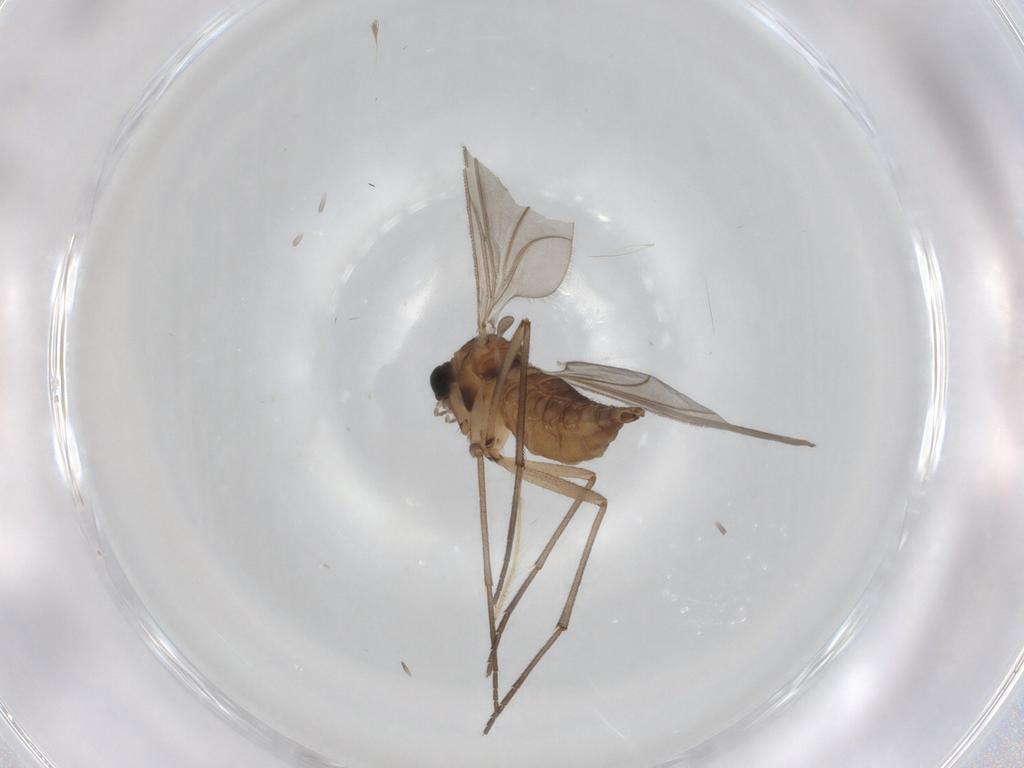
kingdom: Animalia
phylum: Arthropoda
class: Insecta
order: Diptera
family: Sciaridae
